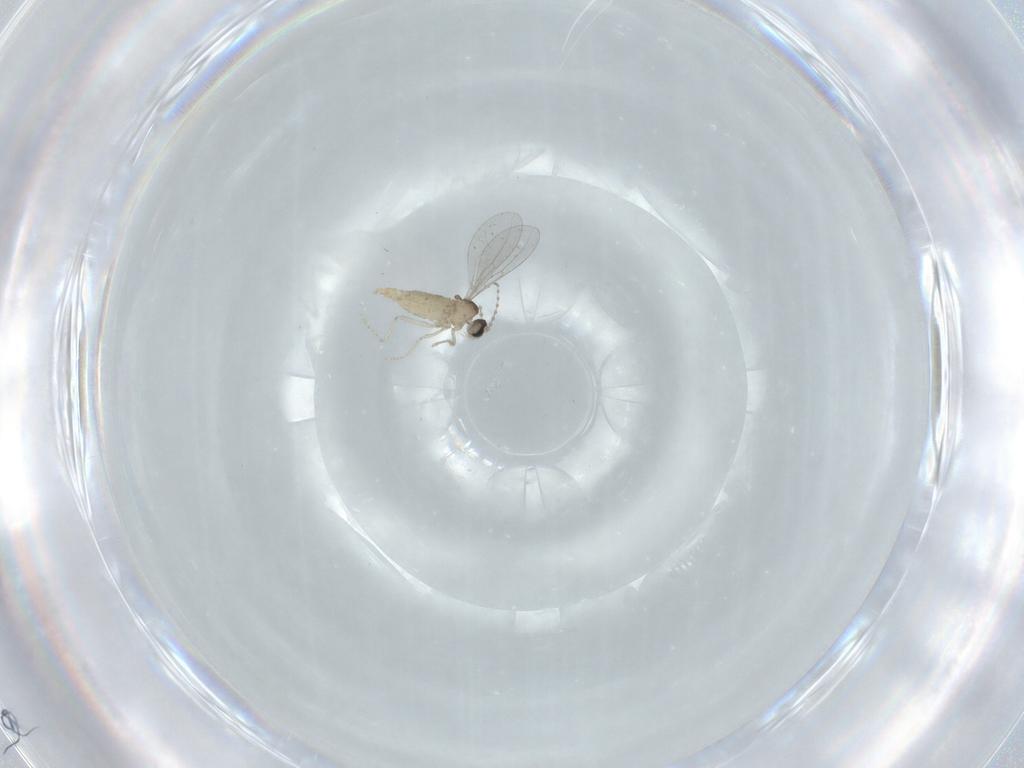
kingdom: Animalia
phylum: Arthropoda
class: Insecta
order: Diptera
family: Cecidomyiidae
